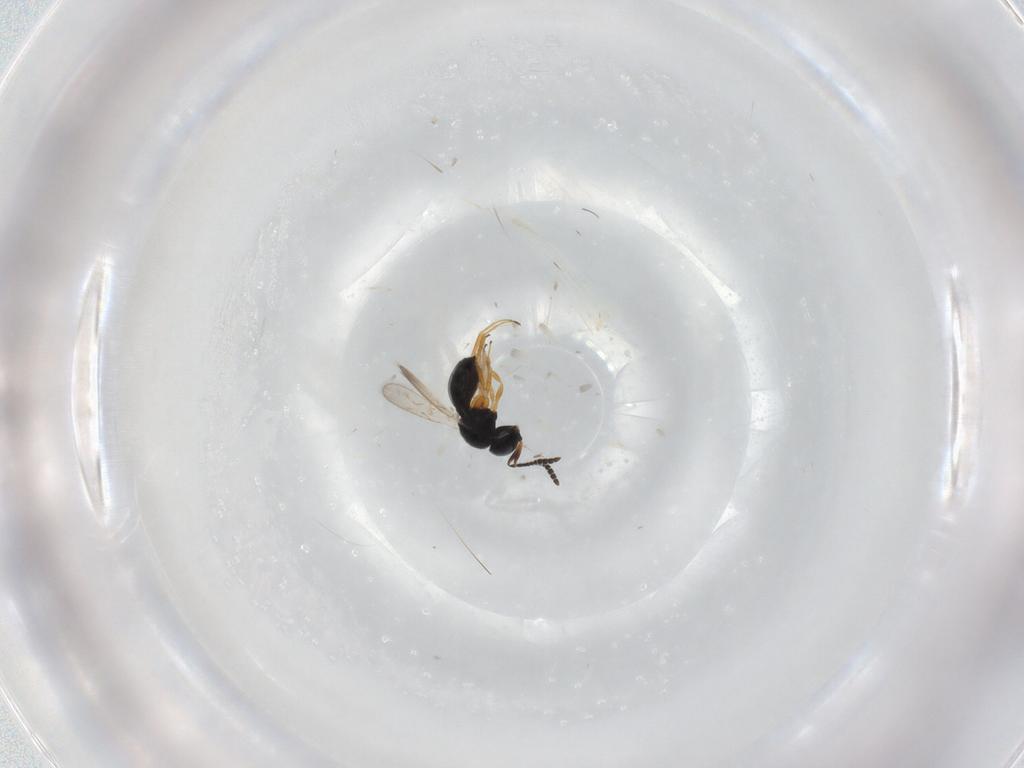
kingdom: Animalia
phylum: Arthropoda
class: Insecta
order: Hymenoptera
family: Scelionidae
